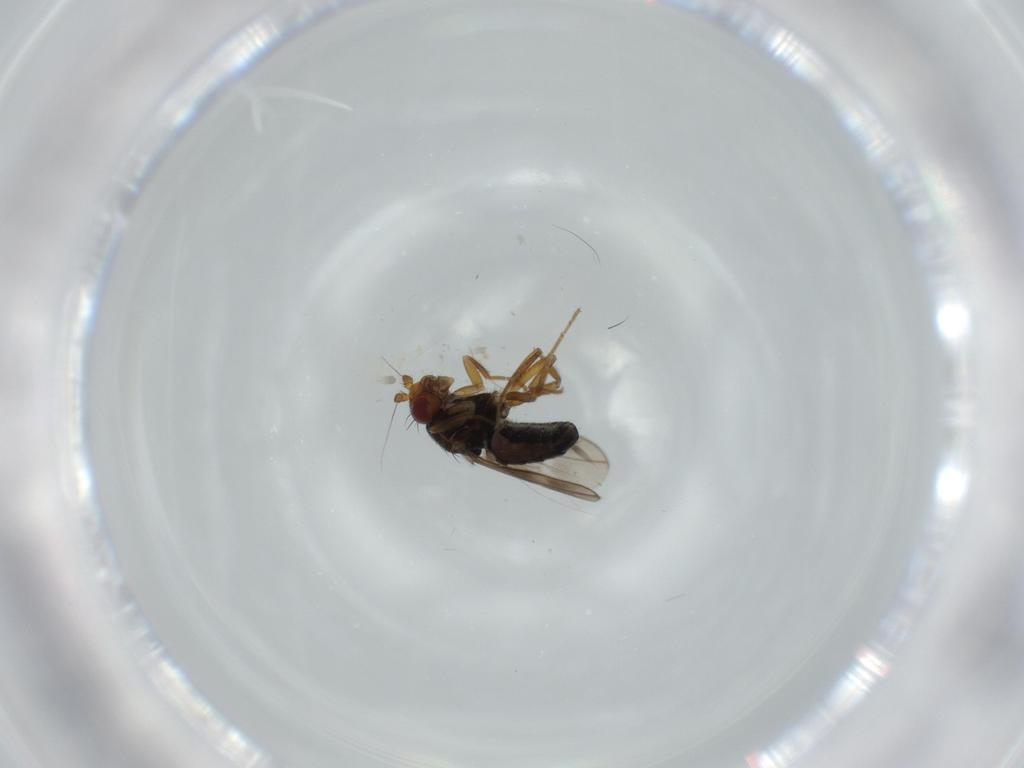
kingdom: Animalia
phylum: Arthropoda
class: Insecta
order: Diptera
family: Sphaeroceridae
